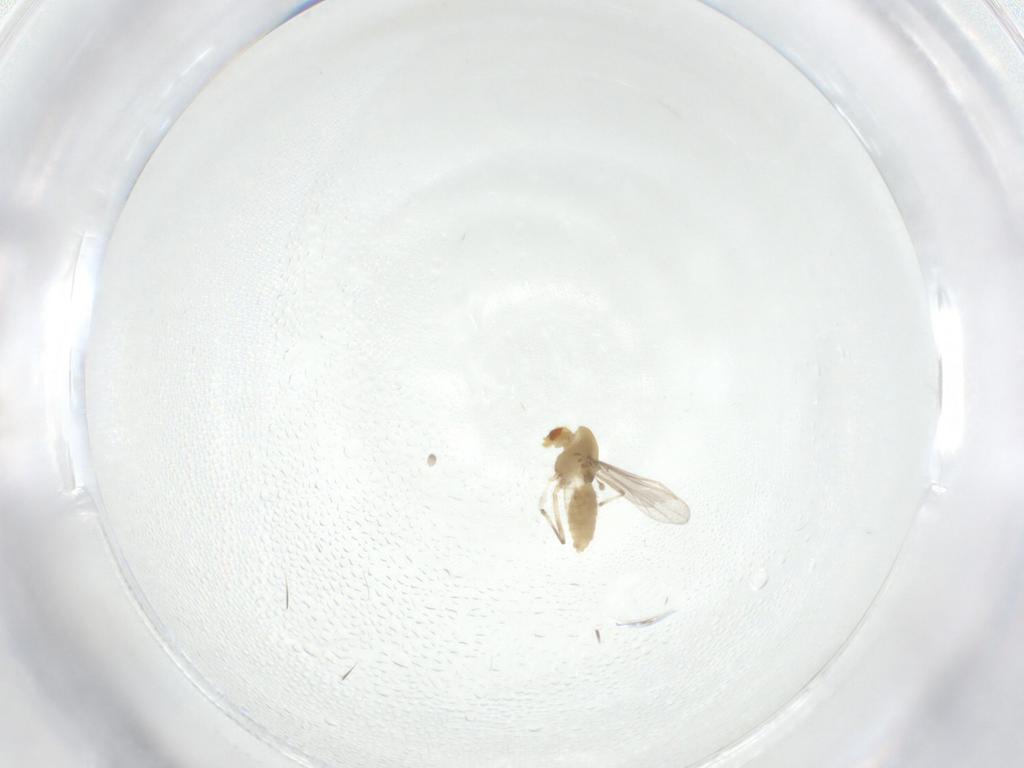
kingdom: Animalia
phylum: Arthropoda
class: Insecta
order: Diptera
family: Chironomidae
